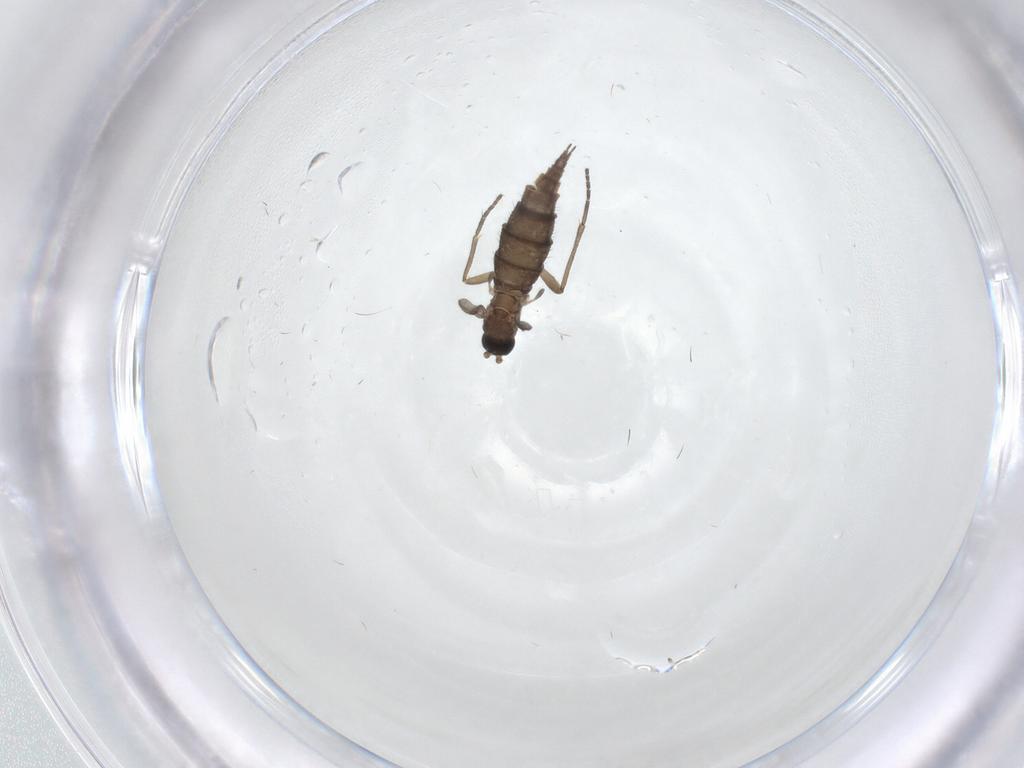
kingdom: Animalia
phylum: Arthropoda
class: Insecta
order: Diptera
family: Sciaridae
